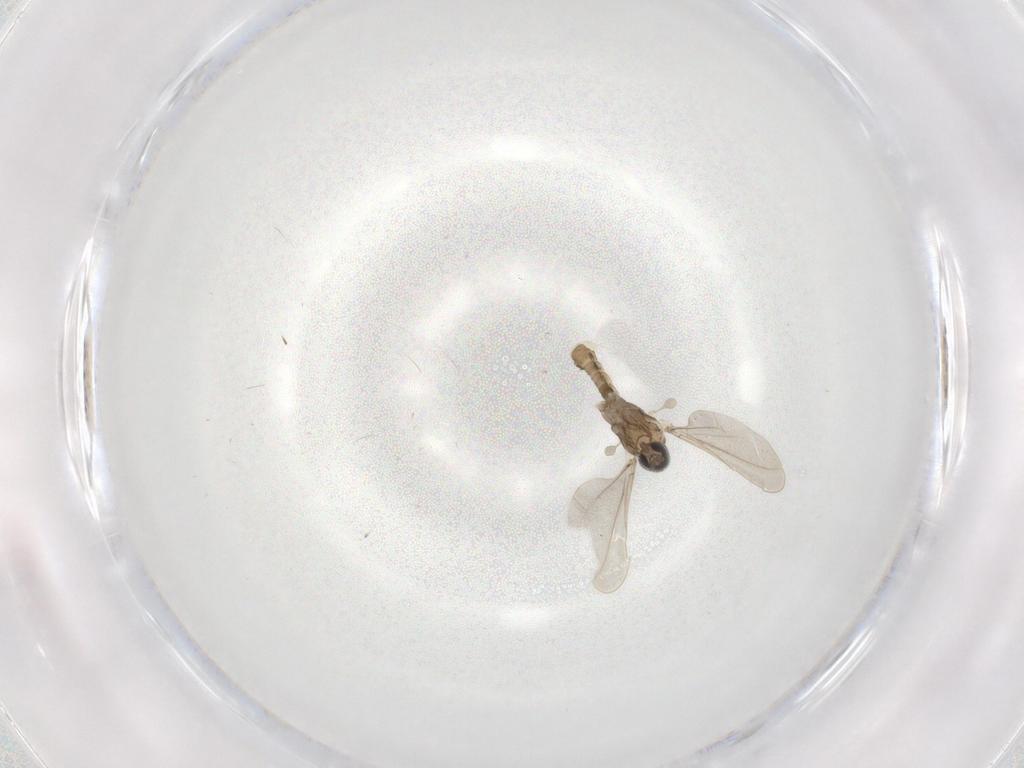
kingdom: Animalia
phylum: Arthropoda
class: Insecta
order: Diptera
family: Cecidomyiidae
